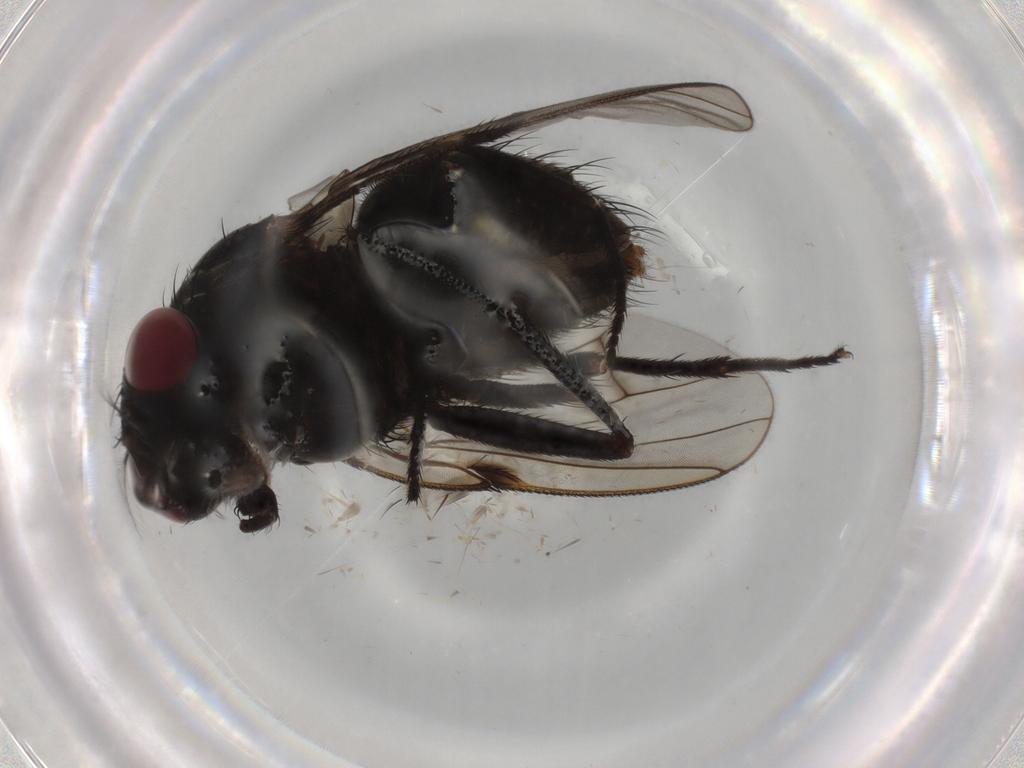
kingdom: Animalia
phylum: Arthropoda
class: Insecta
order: Diptera
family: Muscidae
